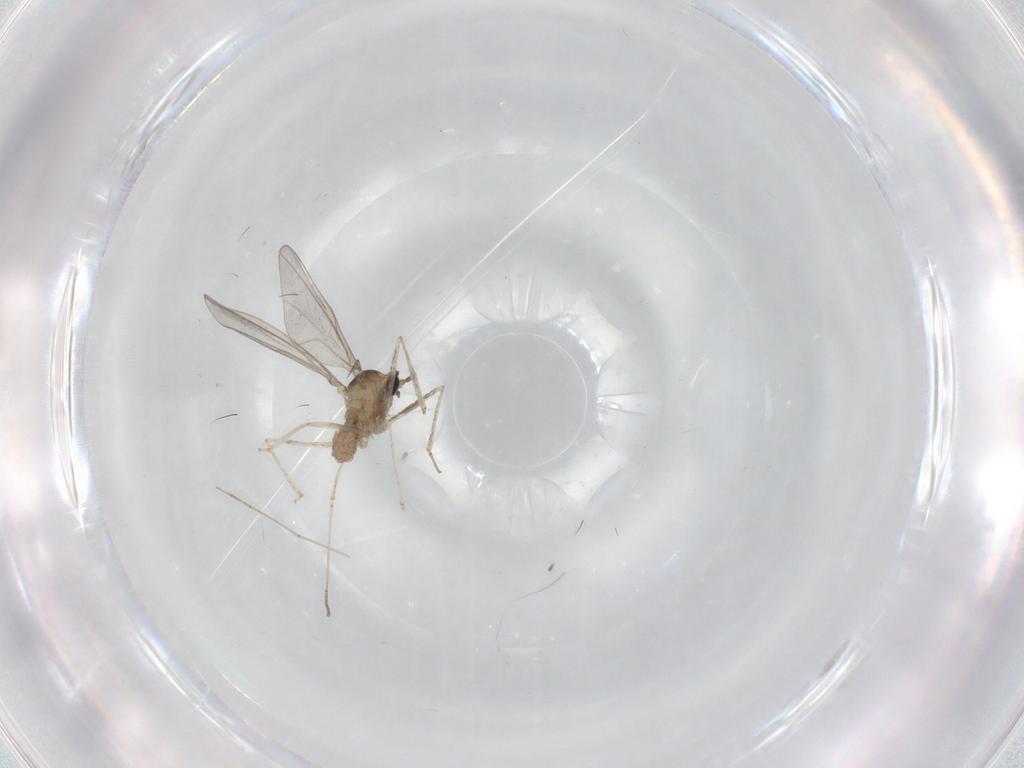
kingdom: Animalia
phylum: Arthropoda
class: Insecta
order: Diptera
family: Cecidomyiidae
